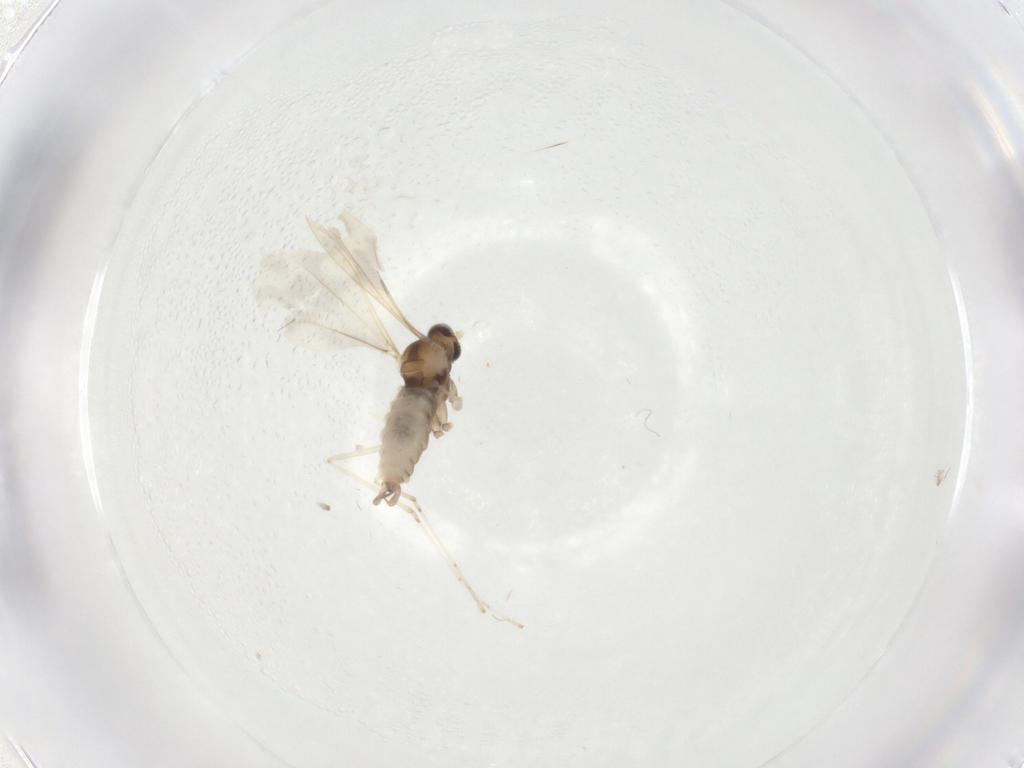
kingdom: Animalia
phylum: Arthropoda
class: Insecta
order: Diptera
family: Cecidomyiidae
